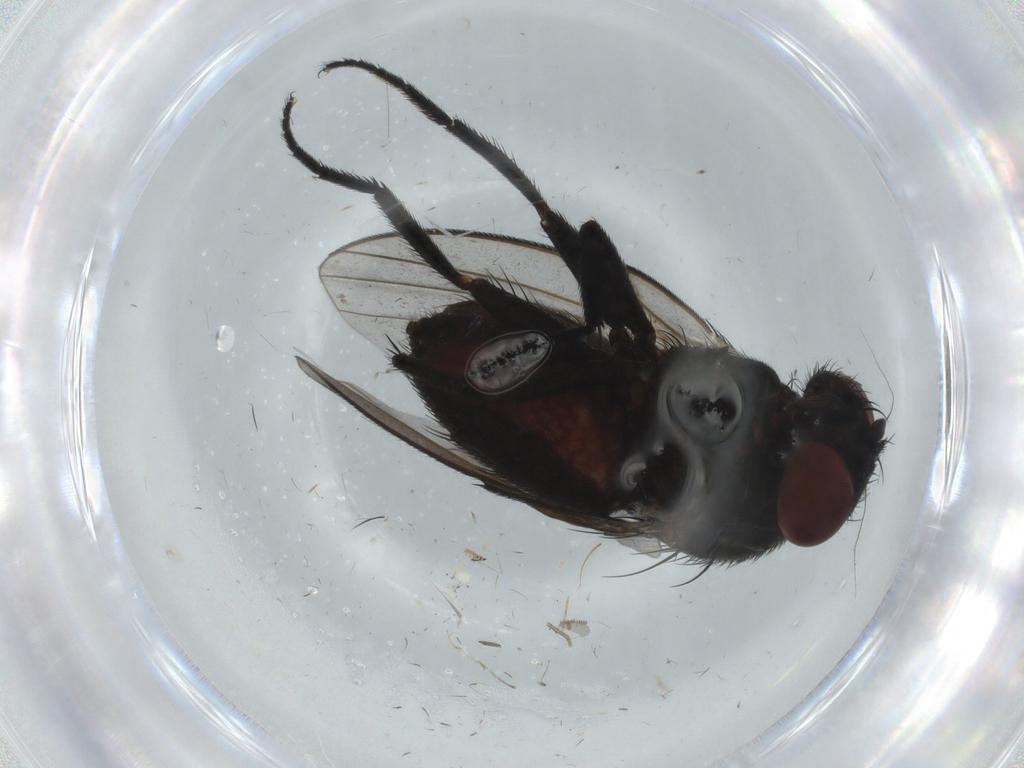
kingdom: Animalia
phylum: Arthropoda
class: Insecta
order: Diptera
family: Milichiidae
